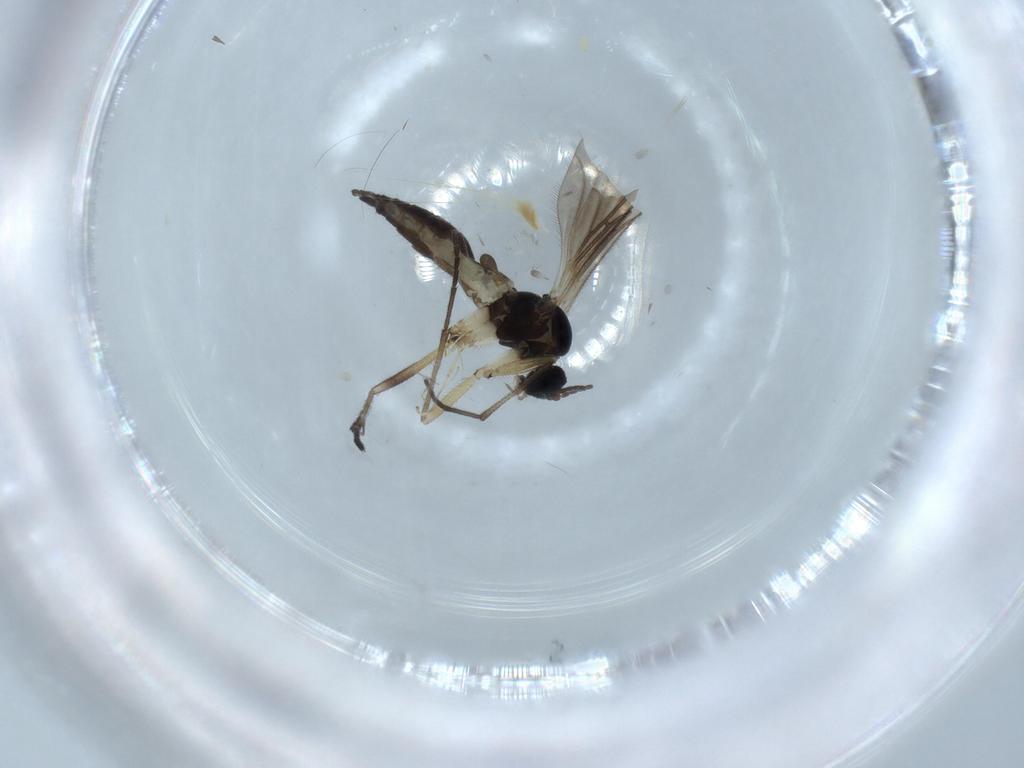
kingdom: Animalia
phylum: Arthropoda
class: Insecta
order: Diptera
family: Sciaridae
